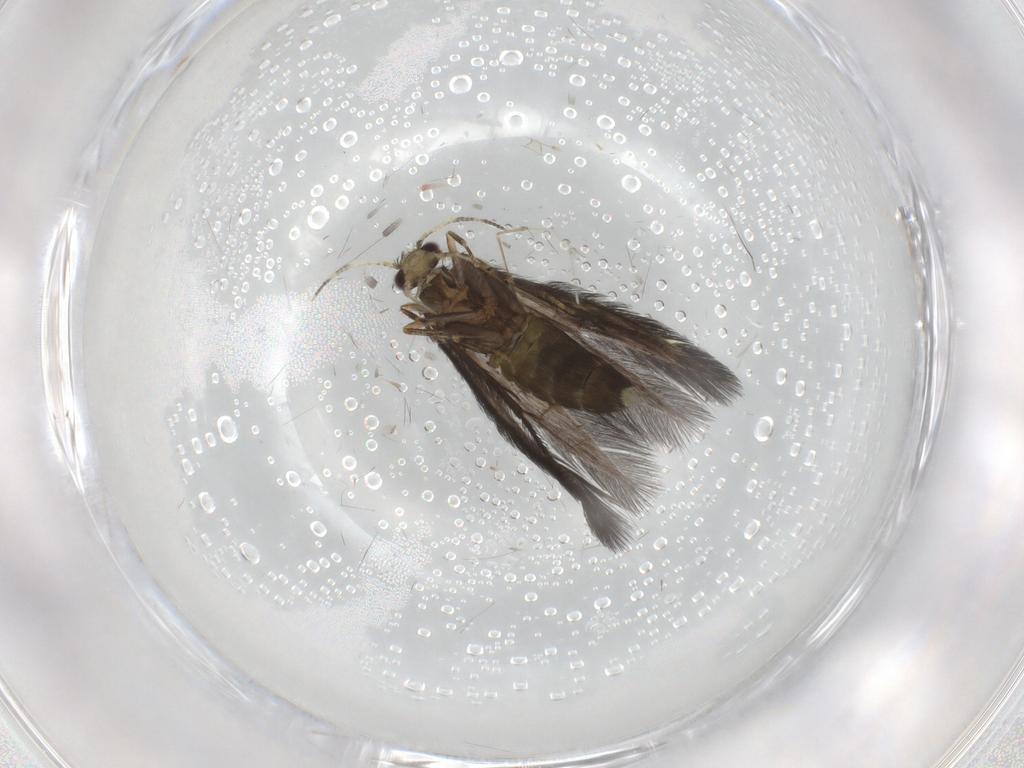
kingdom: Animalia
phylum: Arthropoda
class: Insecta
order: Trichoptera
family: Hydroptilidae
